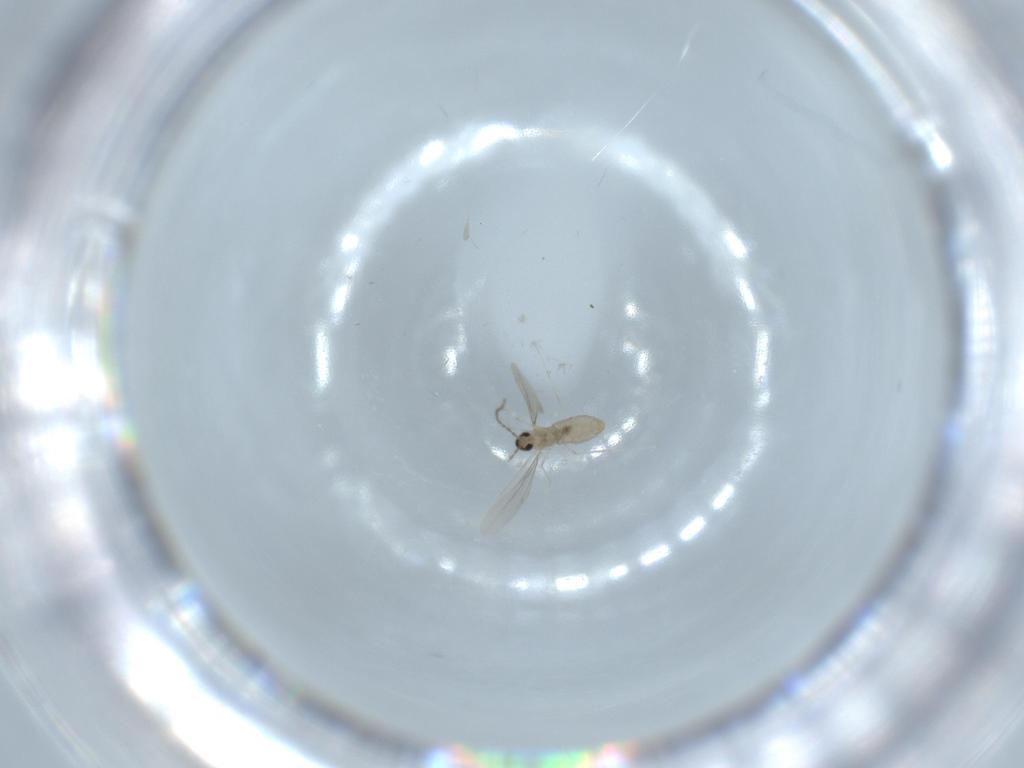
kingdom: Animalia
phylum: Arthropoda
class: Insecta
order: Diptera
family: Cecidomyiidae
